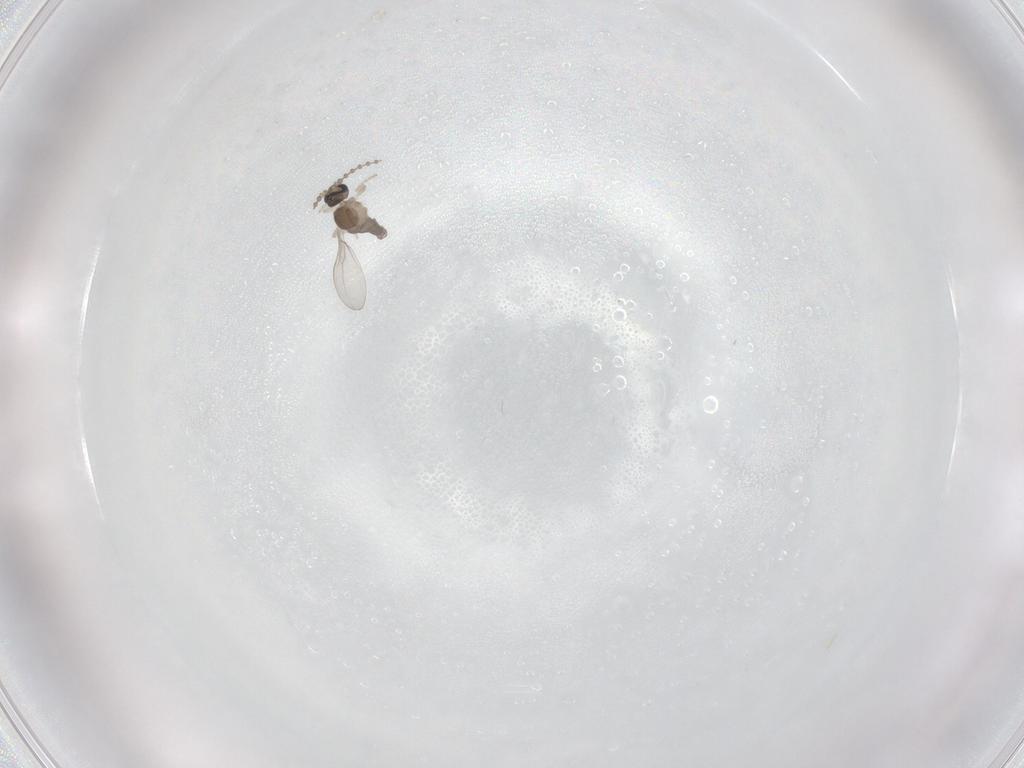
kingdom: Animalia
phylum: Arthropoda
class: Insecta
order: Diptera
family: Cecidomyiidae
